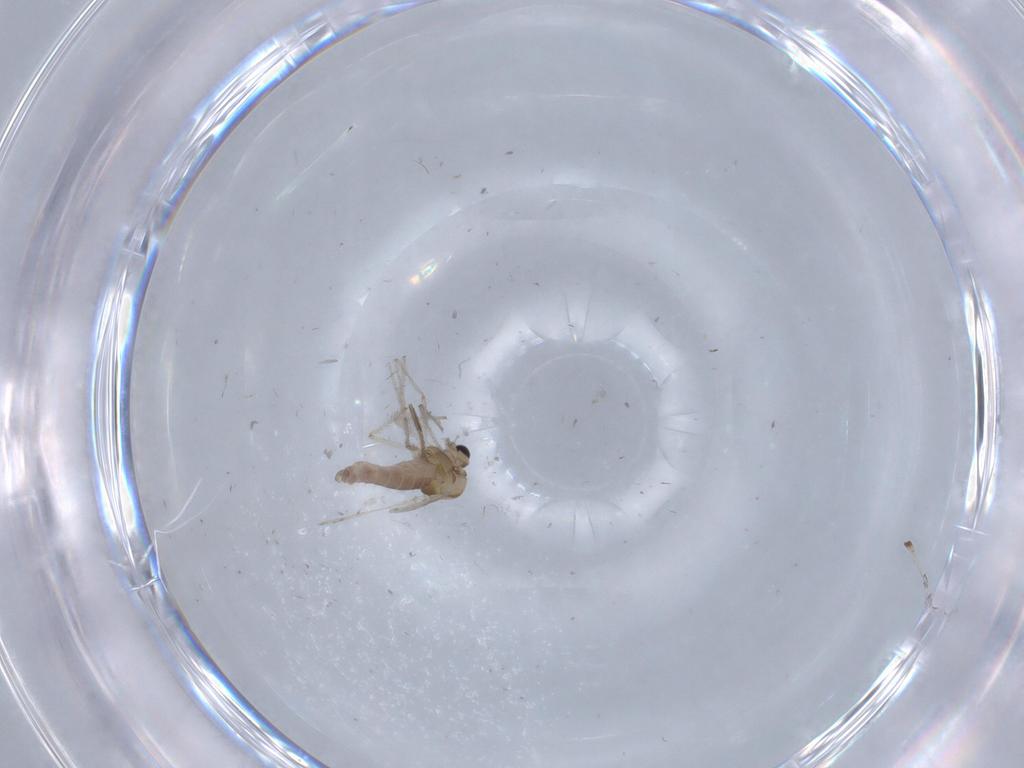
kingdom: Animalia
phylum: Arthropoda
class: Insecta
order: Diptera
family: Chironomidae
